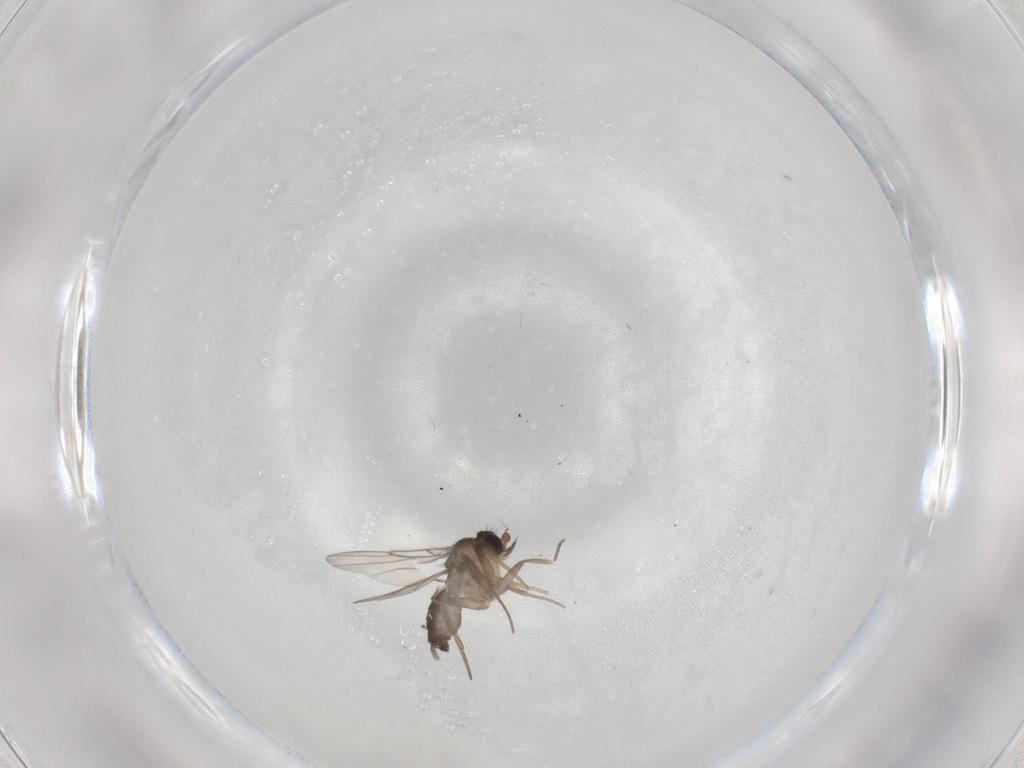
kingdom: Animalia
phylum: Arthropoda
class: Insecta
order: Diptera
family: Phoridae
